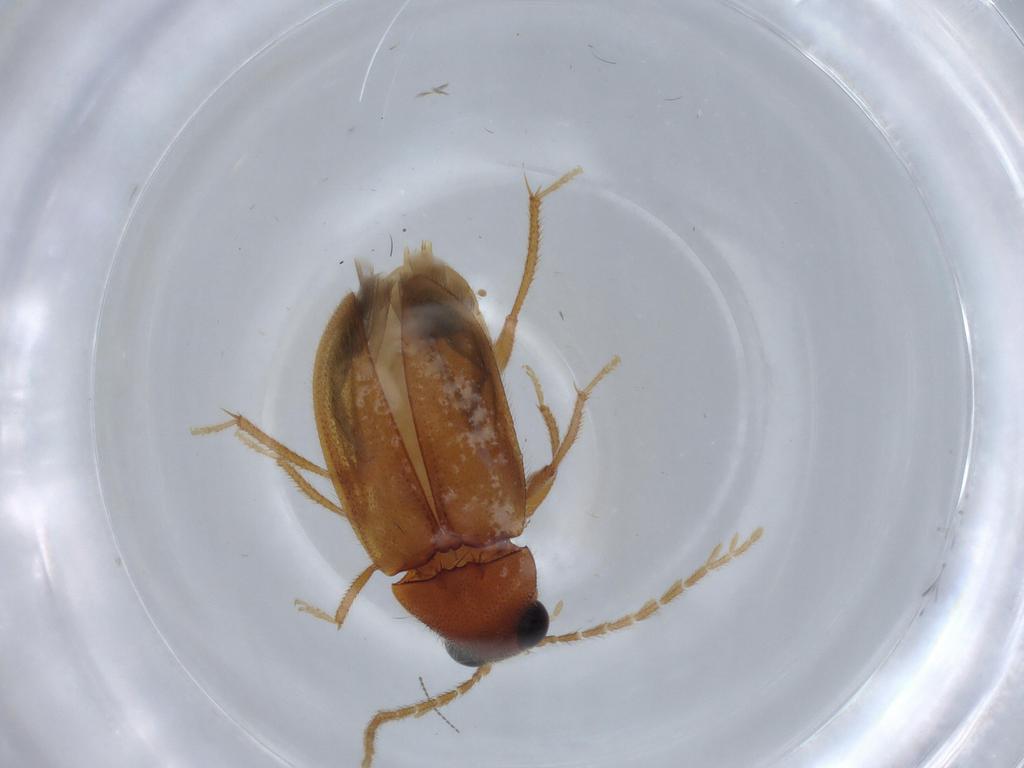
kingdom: Animalia
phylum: Arthropoda
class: Insecta
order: Coleoptera
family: Ptilodactylidae
